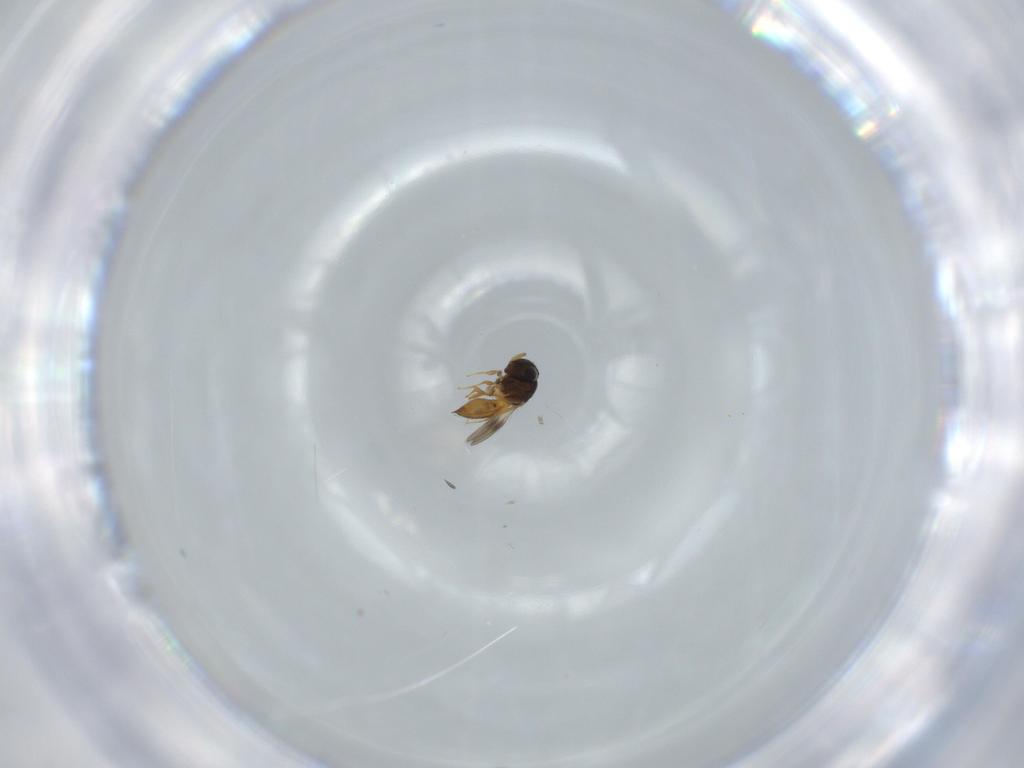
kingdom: Animalia
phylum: Arthropoda
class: Insecta
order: Hymenoptera
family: Scelionidae
